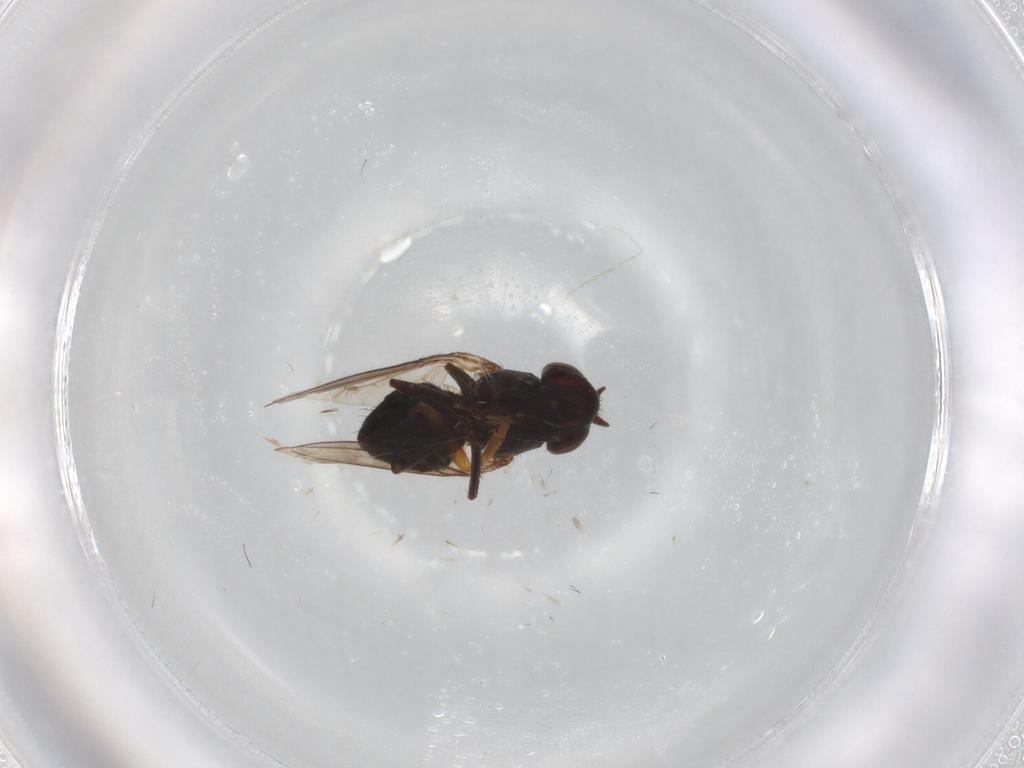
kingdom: Animalia
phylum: Arthropoda
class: Insecta
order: Diptera
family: Ephydridae
